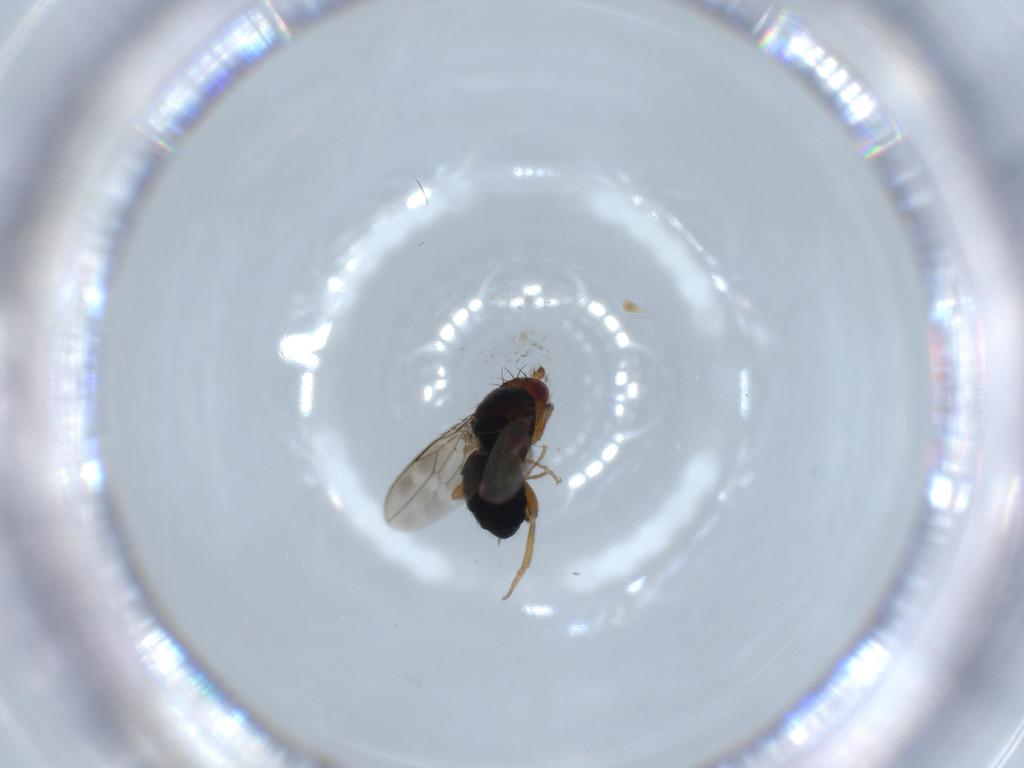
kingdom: Animalia
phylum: Arthropoda
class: Insecta
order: Diptera
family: Sphaeroceridae
